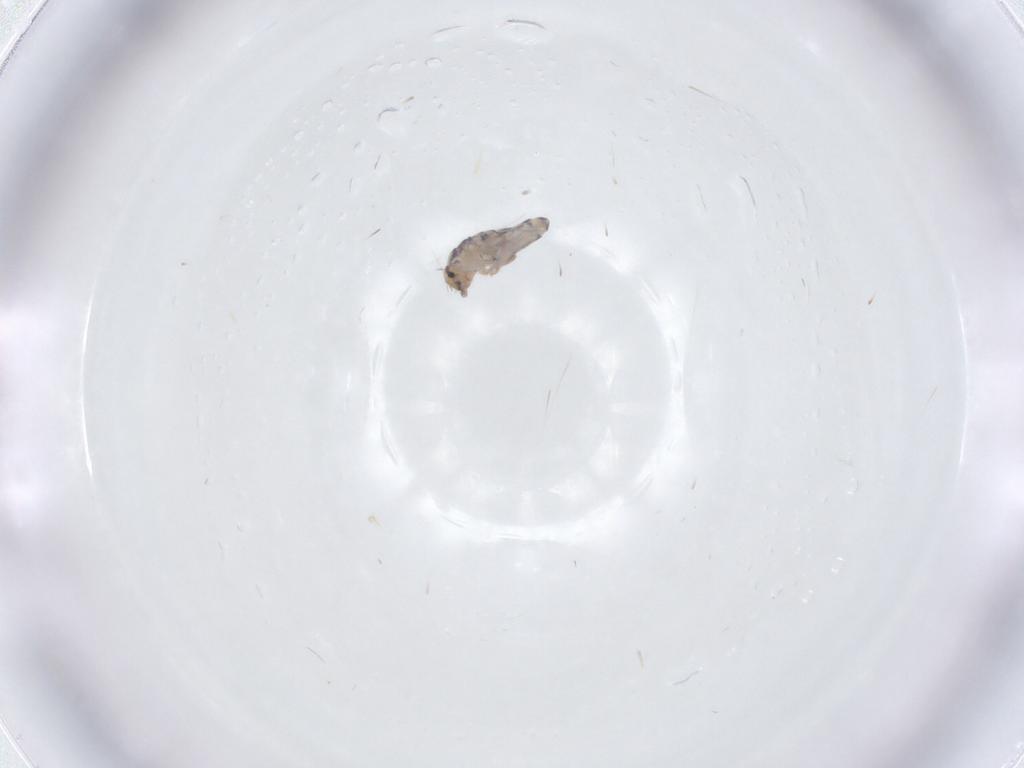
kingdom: Animalia
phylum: Arthropoda
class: Collembola
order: Entomobryomorpha
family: Entomobryidae
